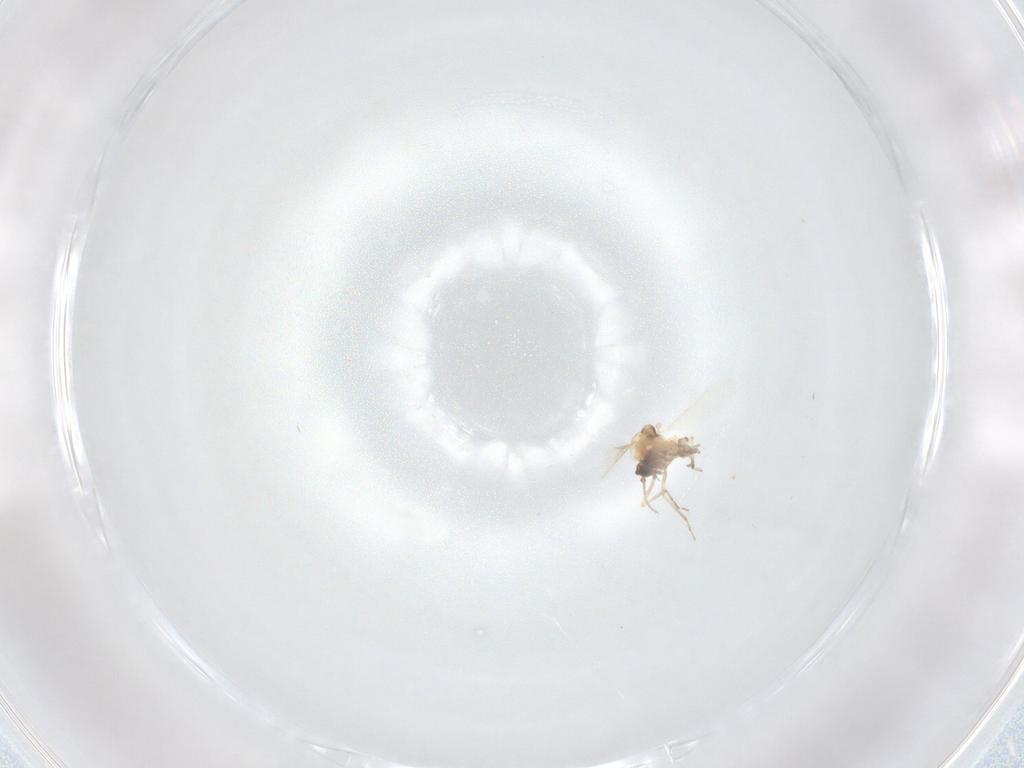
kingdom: Animalia
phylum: Arthropoda
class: Insecta
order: Diptera
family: Ceratopogonidae
